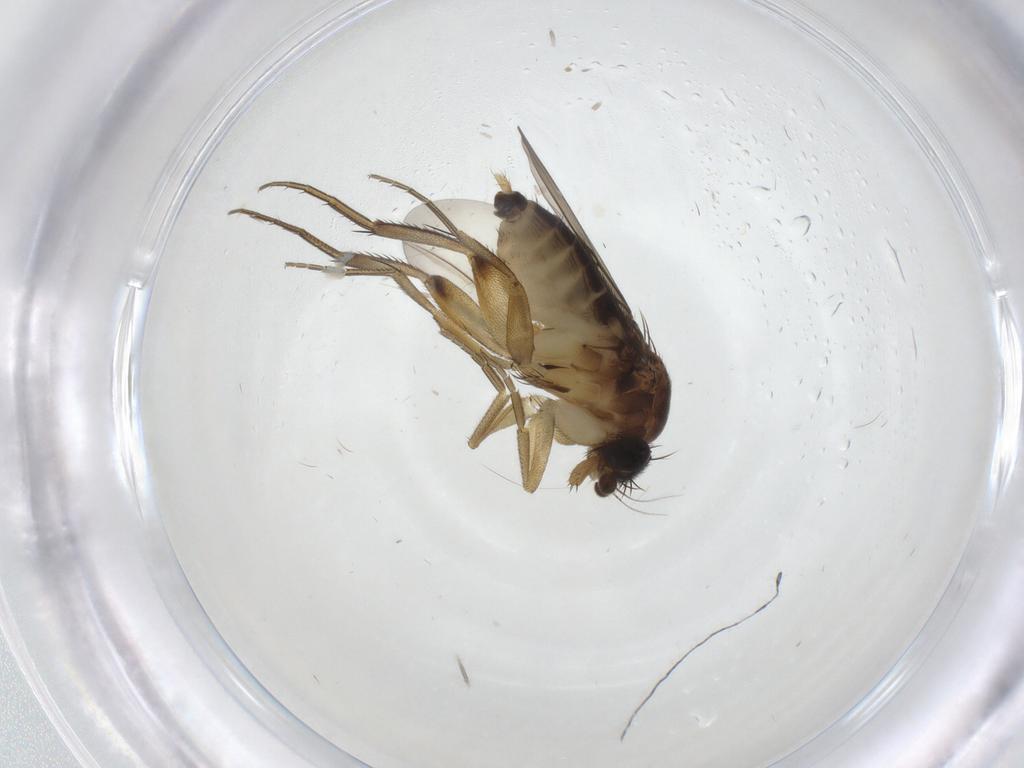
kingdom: Animalia
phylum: Arthropoda
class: Insecta
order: Diptera
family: Phoridae
